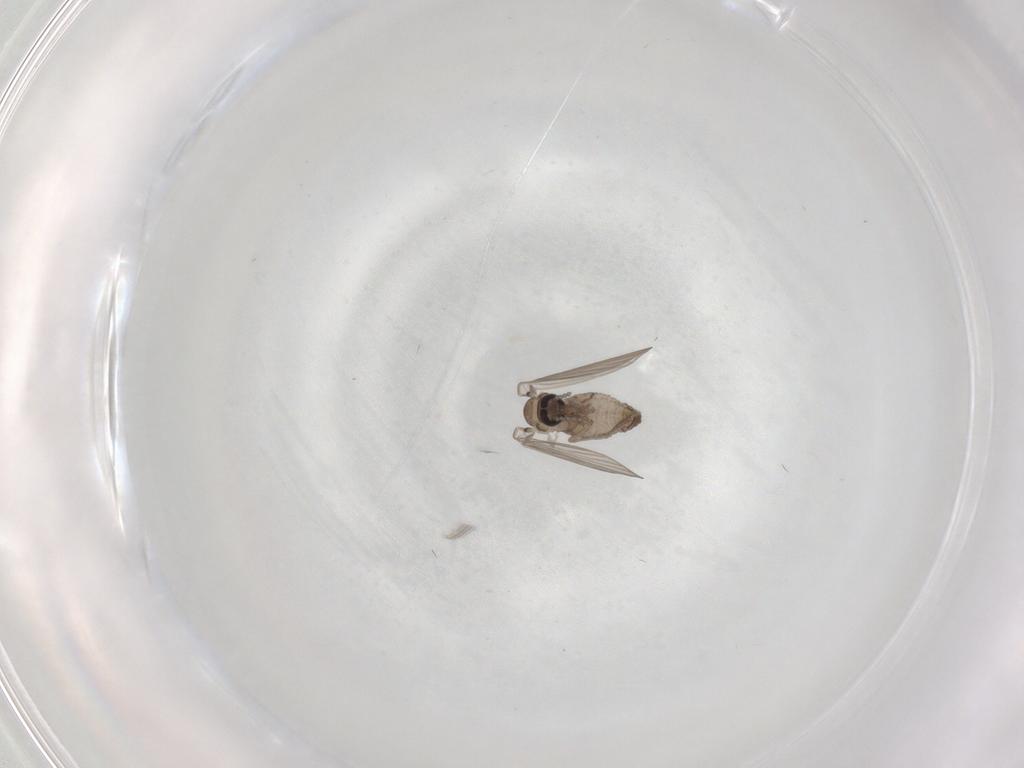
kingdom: Animalia
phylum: Arthropoda
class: Insecta
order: Diptera
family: Psychodidae
